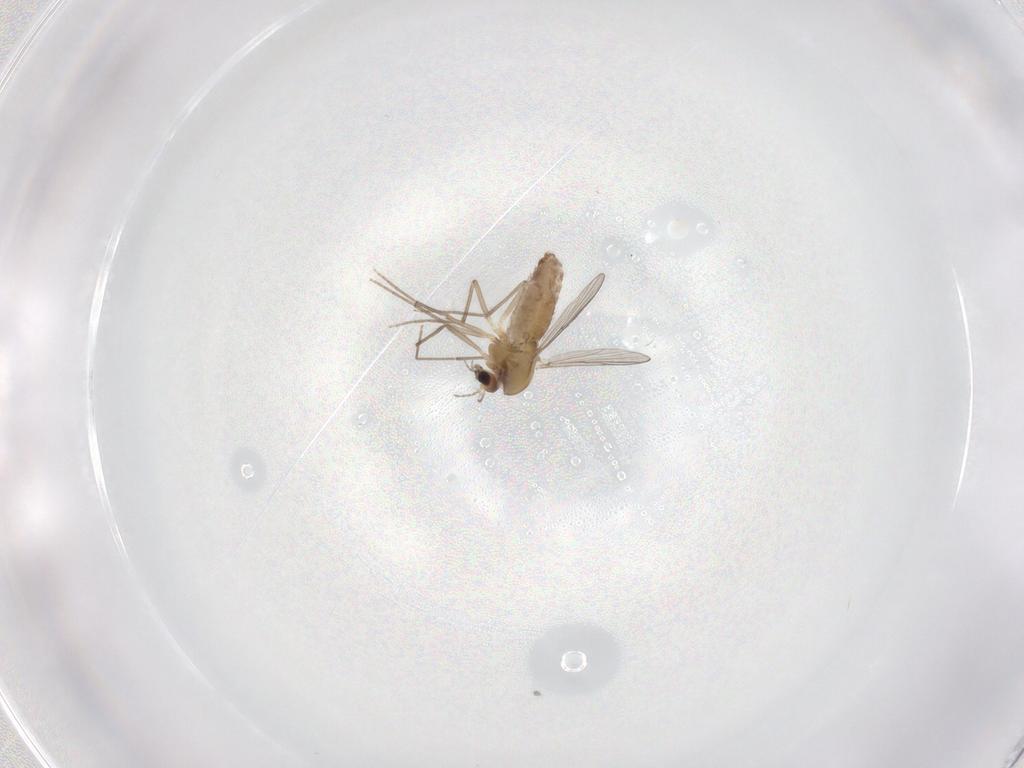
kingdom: Animalia
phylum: Arthropoda
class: Insecta
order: Diptera
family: Chironomidae
